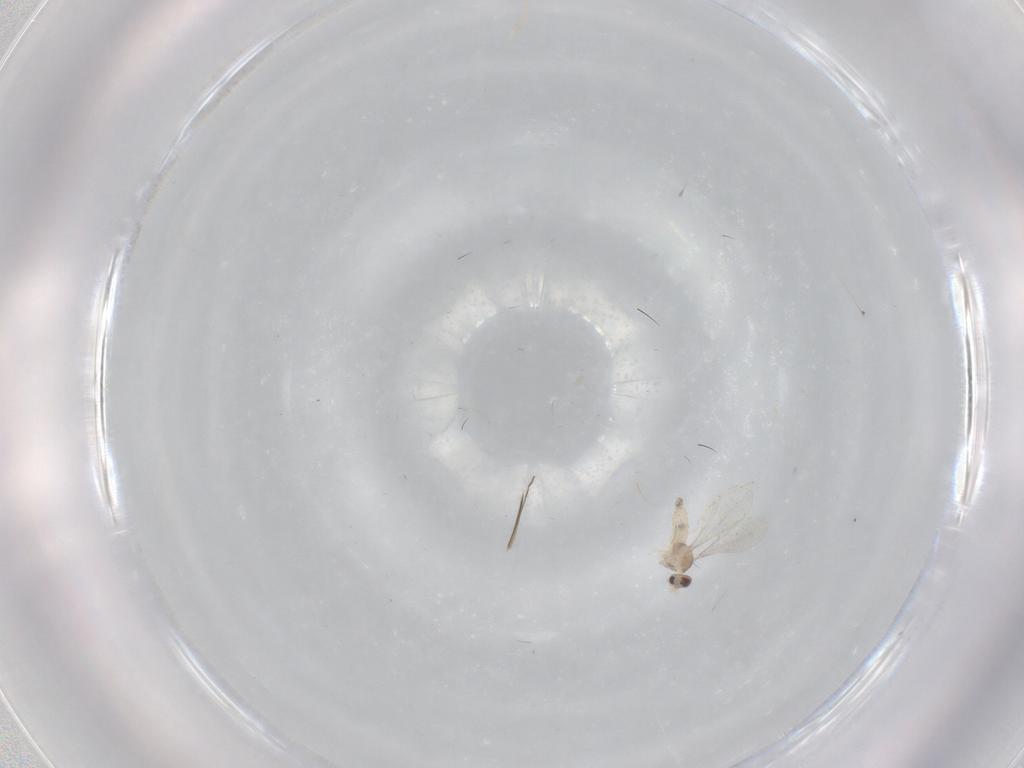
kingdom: Animalia
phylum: Arthropoda
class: Insecta
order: Diptera
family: Cecidomyiidae
